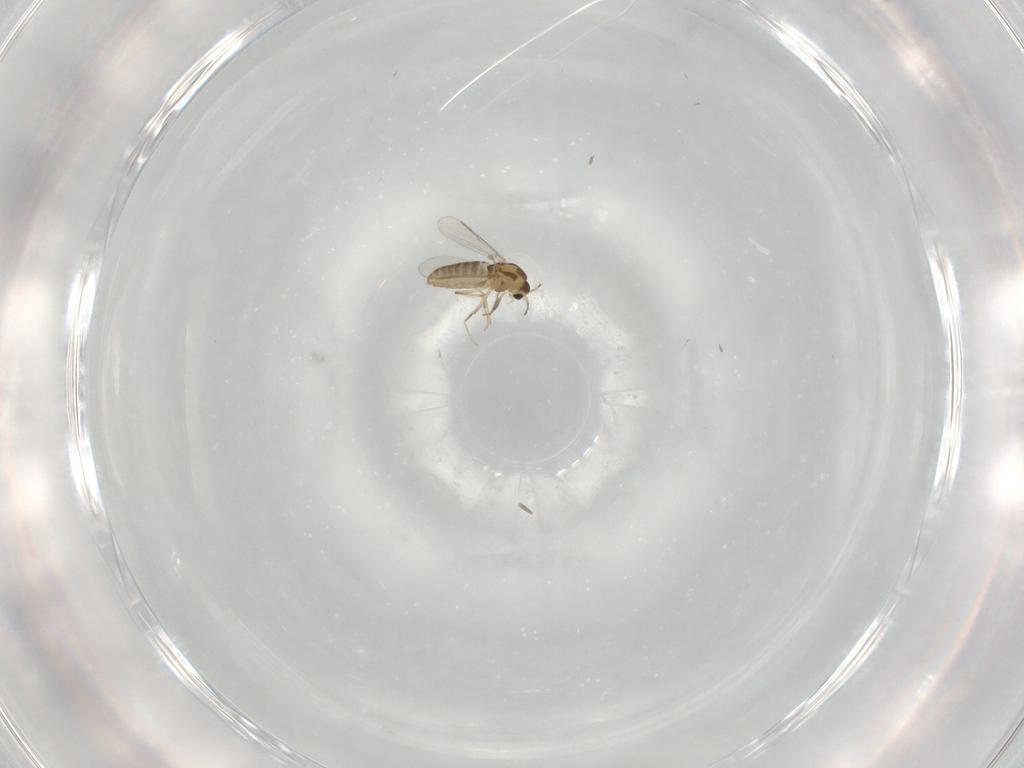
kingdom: Animalia
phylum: Arthropoda
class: Insecta
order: Diptera
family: Chironomidae
